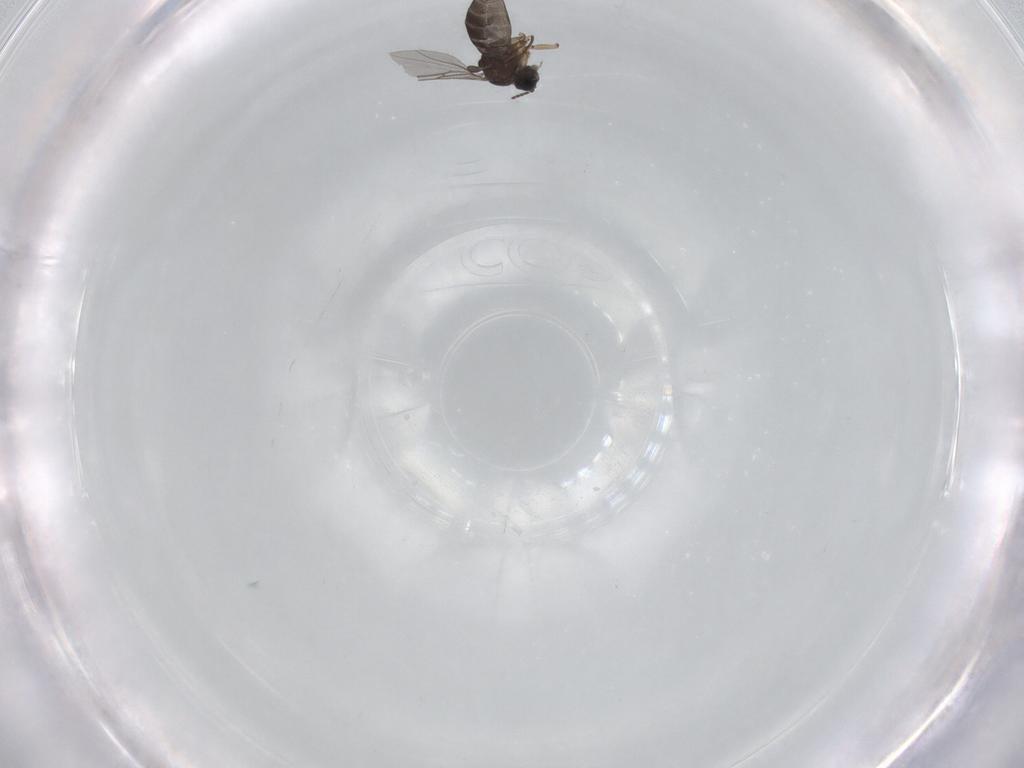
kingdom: Animalia
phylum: Arthropoda
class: Insecta
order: Diptera
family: Sciaridae
